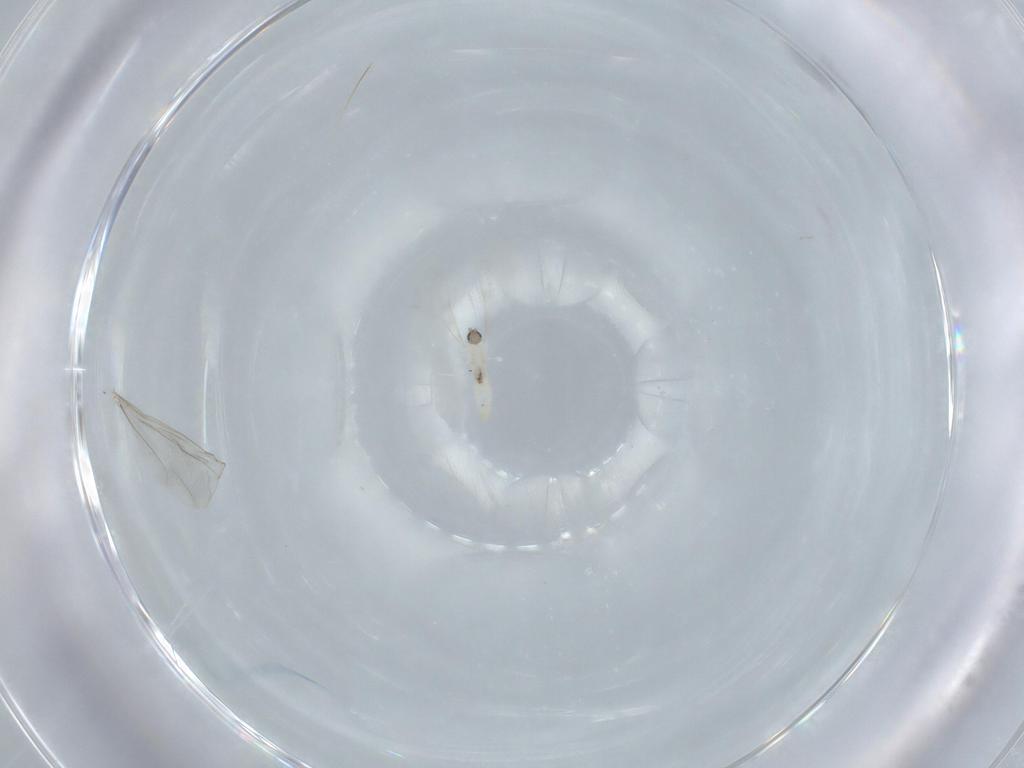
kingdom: Animalia
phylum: Arthropoda
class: Insecta
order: Diptera
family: Cecidomyiidae
